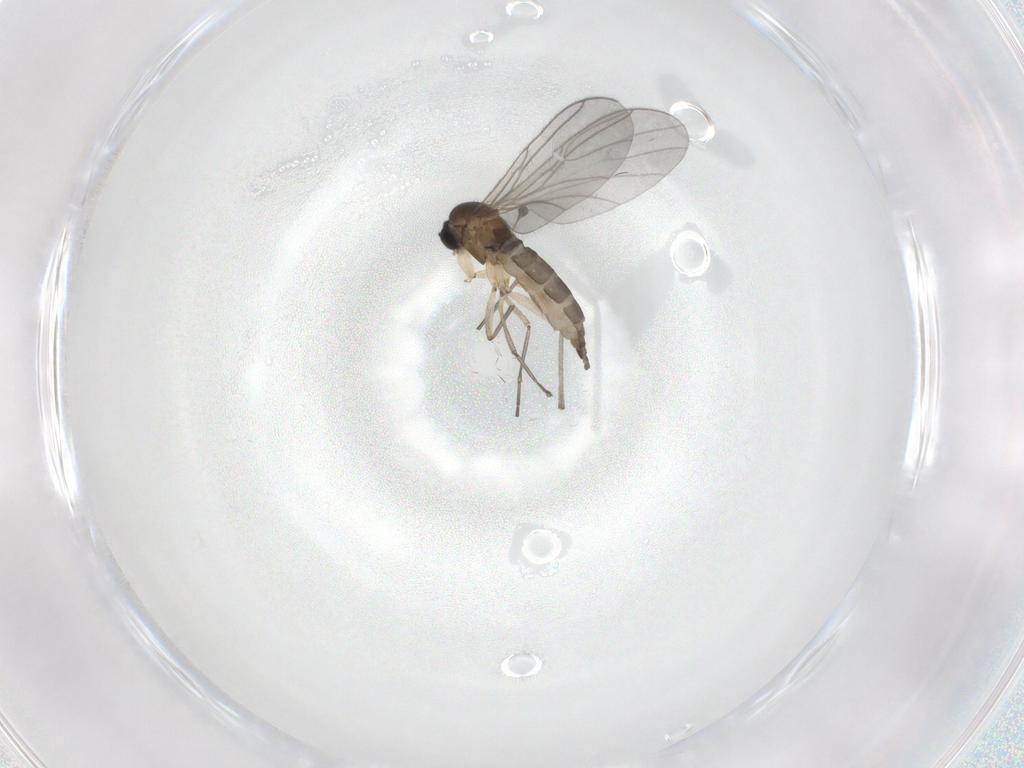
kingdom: Animalia
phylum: Arthropoda
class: Insecta
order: Diptera
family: Sciaridae
